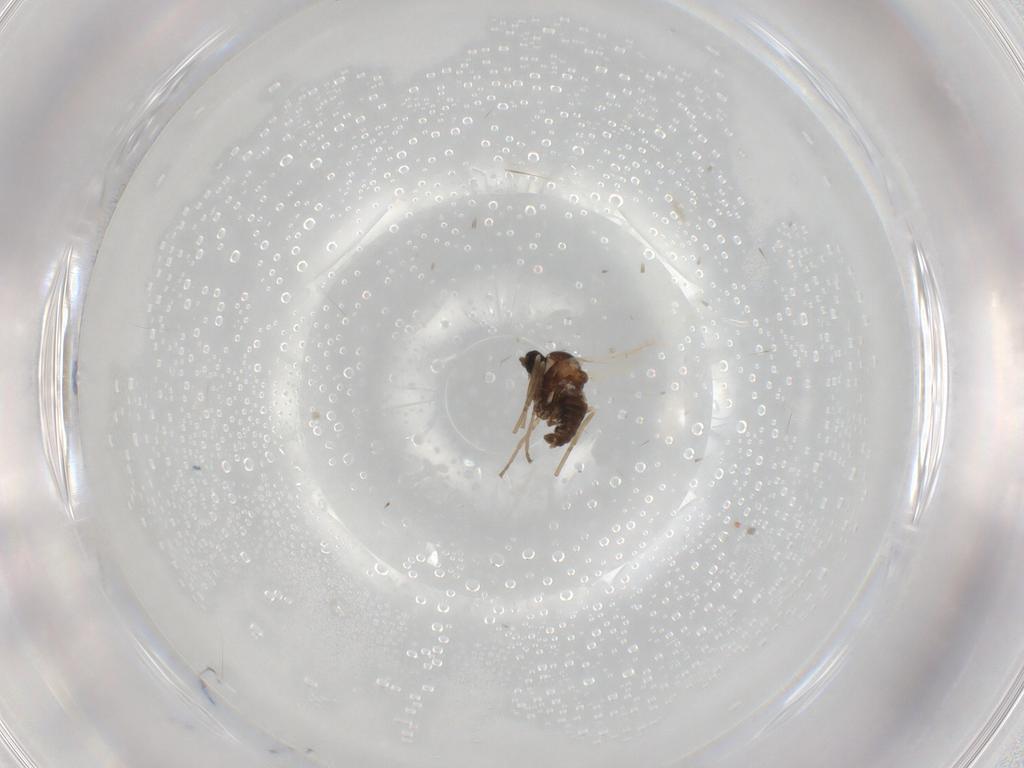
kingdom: Animalia
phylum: Arthropoda
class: Insecta
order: Diptera
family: Cecidomyiidae
